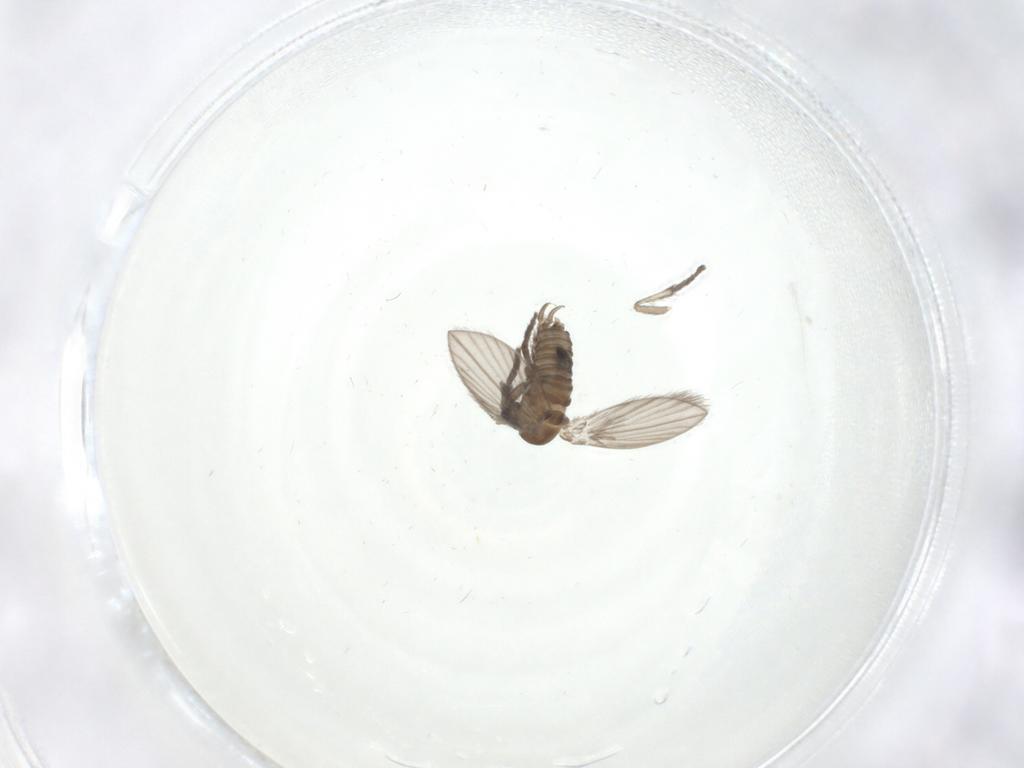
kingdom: Animalia
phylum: Arthropoda
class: Insecta
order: Diptera
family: Psychodidae
